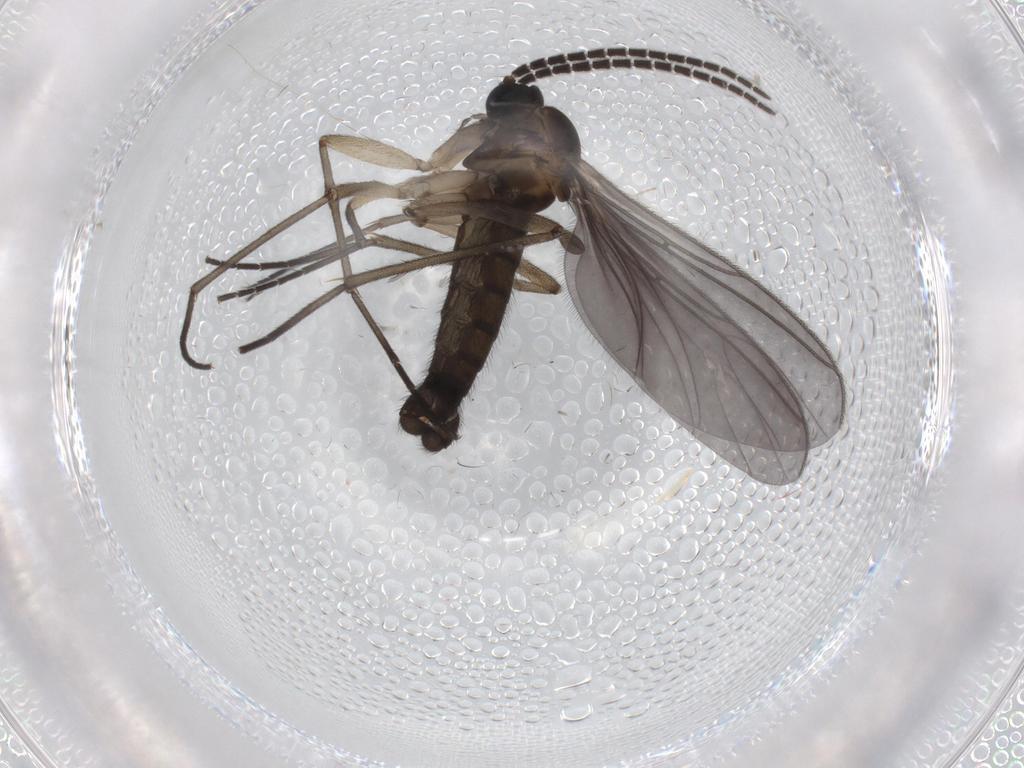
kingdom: Animalia
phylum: Arthropoda
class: Insecta
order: Diptera
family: Cecidomyiidae
